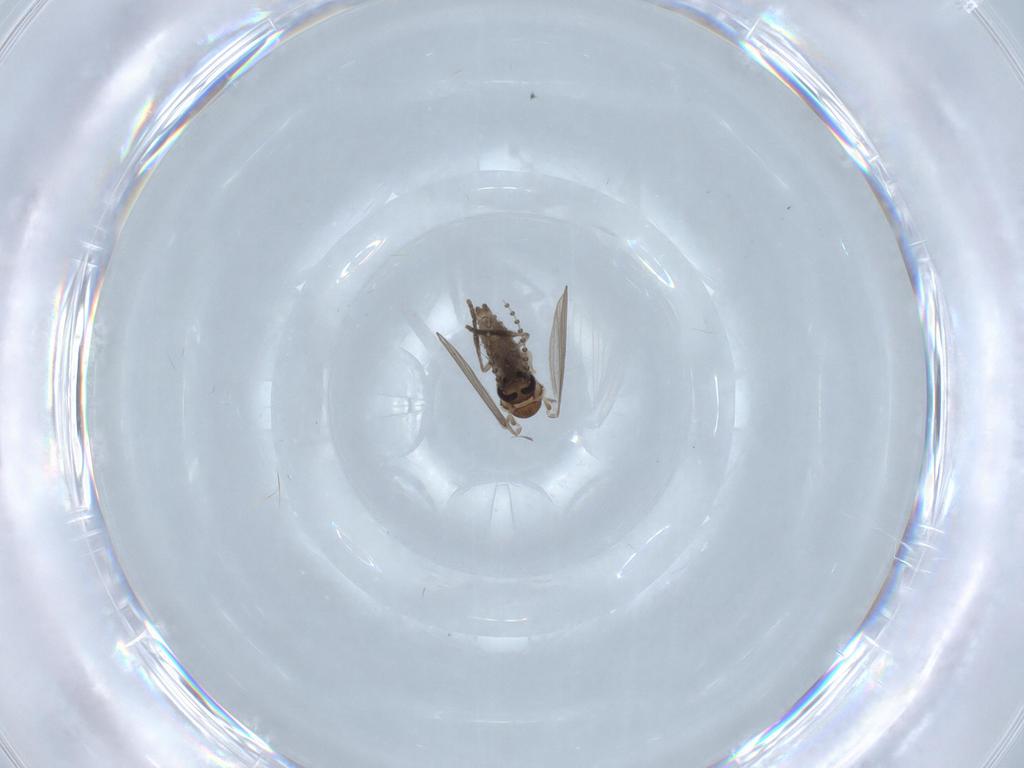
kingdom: Animalia
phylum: Arthropoda
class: Insecta
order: Diptera
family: Psychodidae
